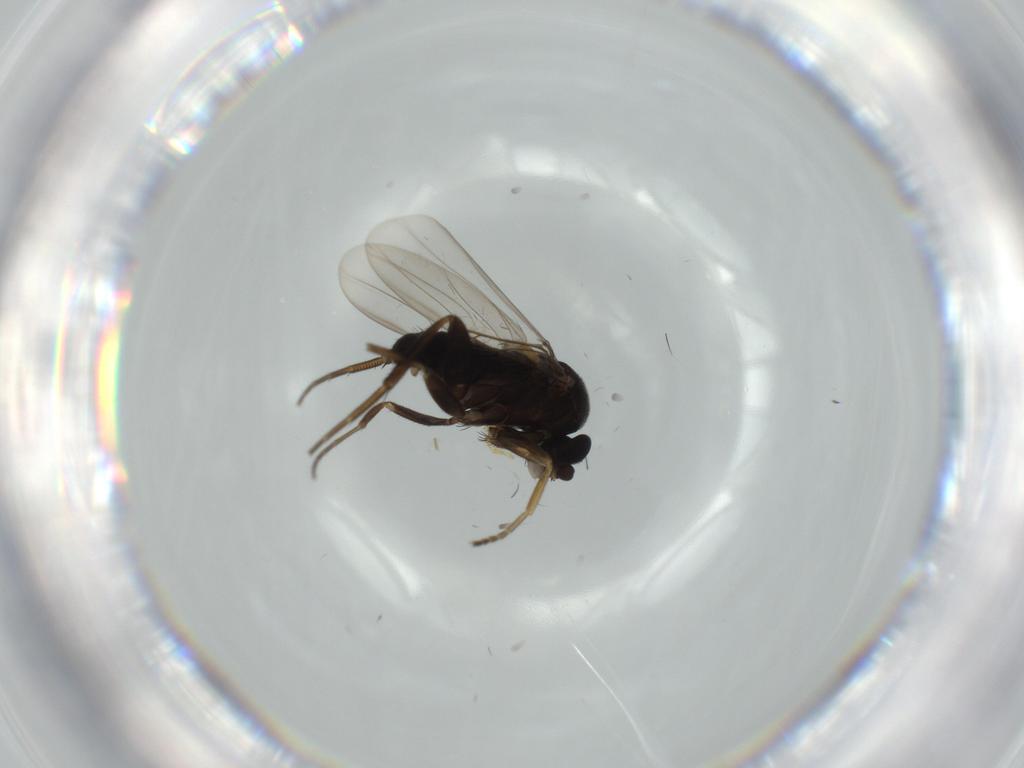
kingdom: Animalia
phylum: Arthropoda
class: Insecta
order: Diptera
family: Phoridae
